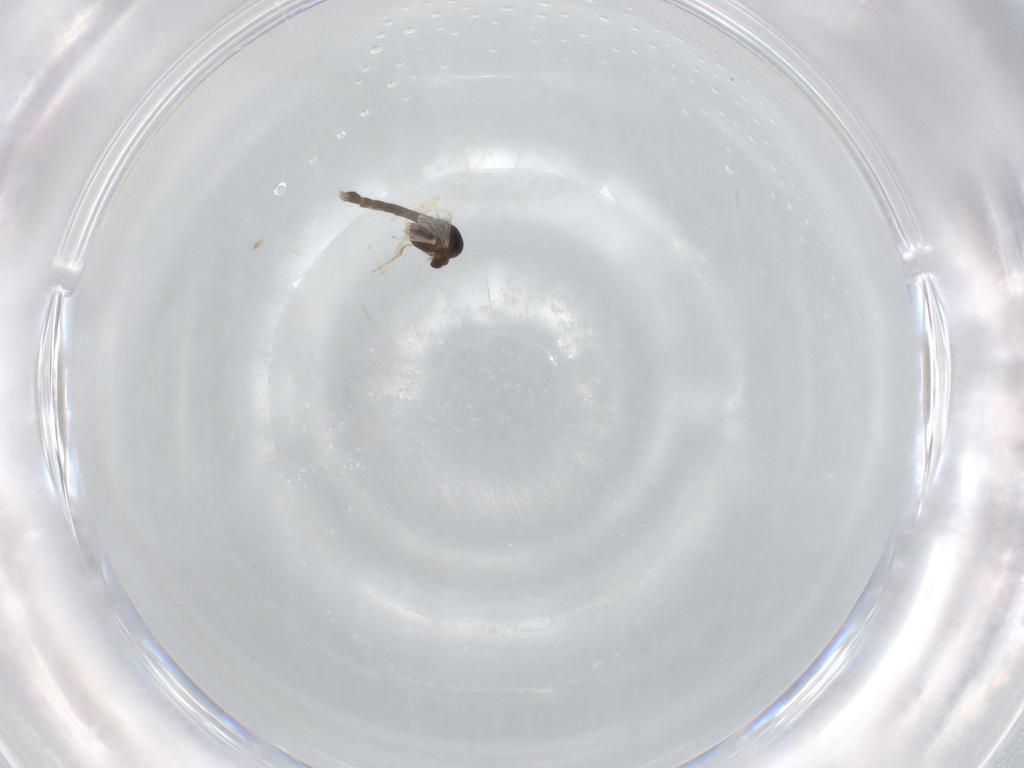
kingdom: Animalia
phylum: Arthropoda
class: Insecta
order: Diptera
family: Chironomidae
